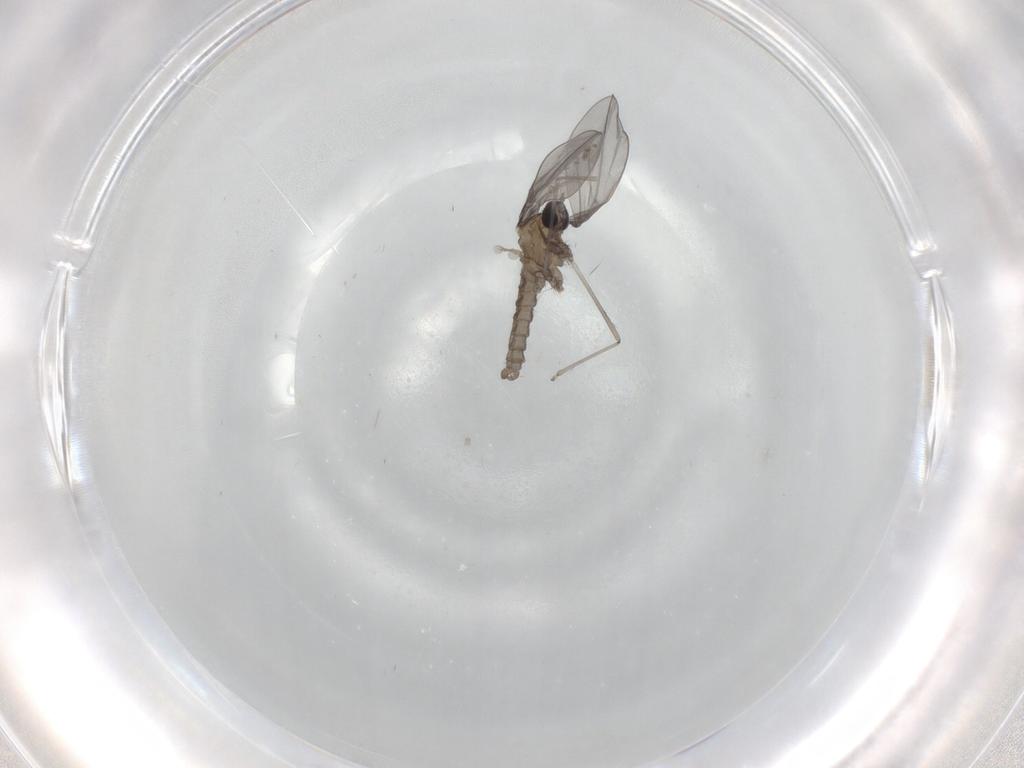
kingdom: Animalia
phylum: Arthropoda
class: Insecta
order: Diptera
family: Cecidomyiidae
